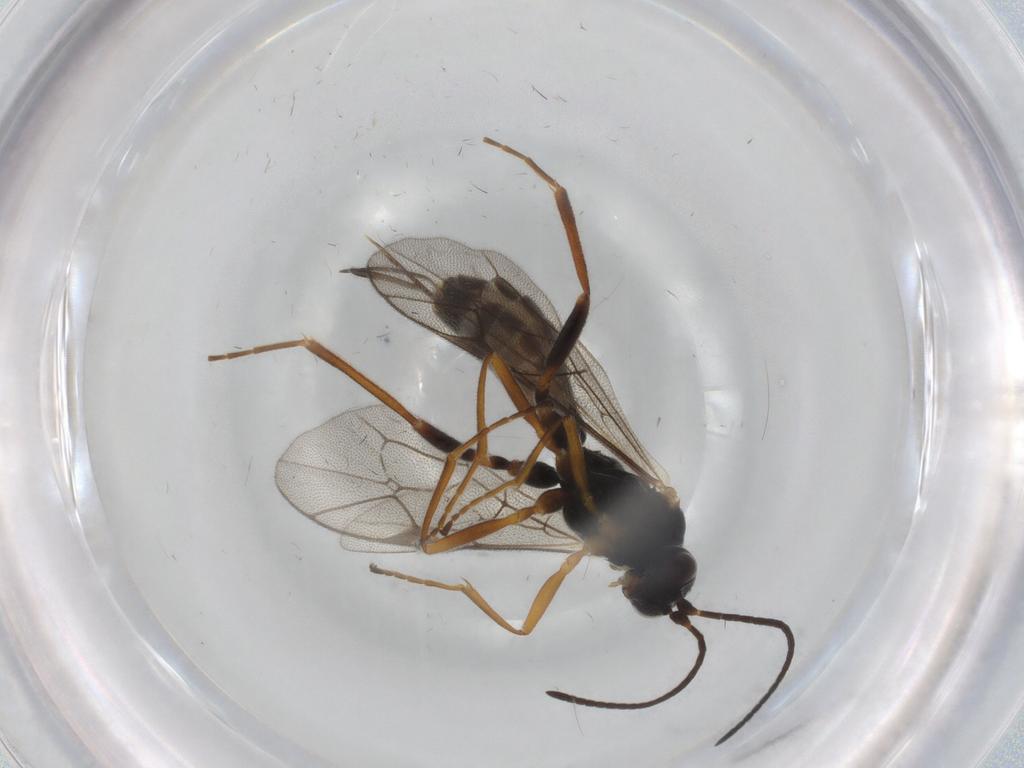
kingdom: Animalia
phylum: Arthropoda
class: Insecta
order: Hymenoptera
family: Ichneumonidae
